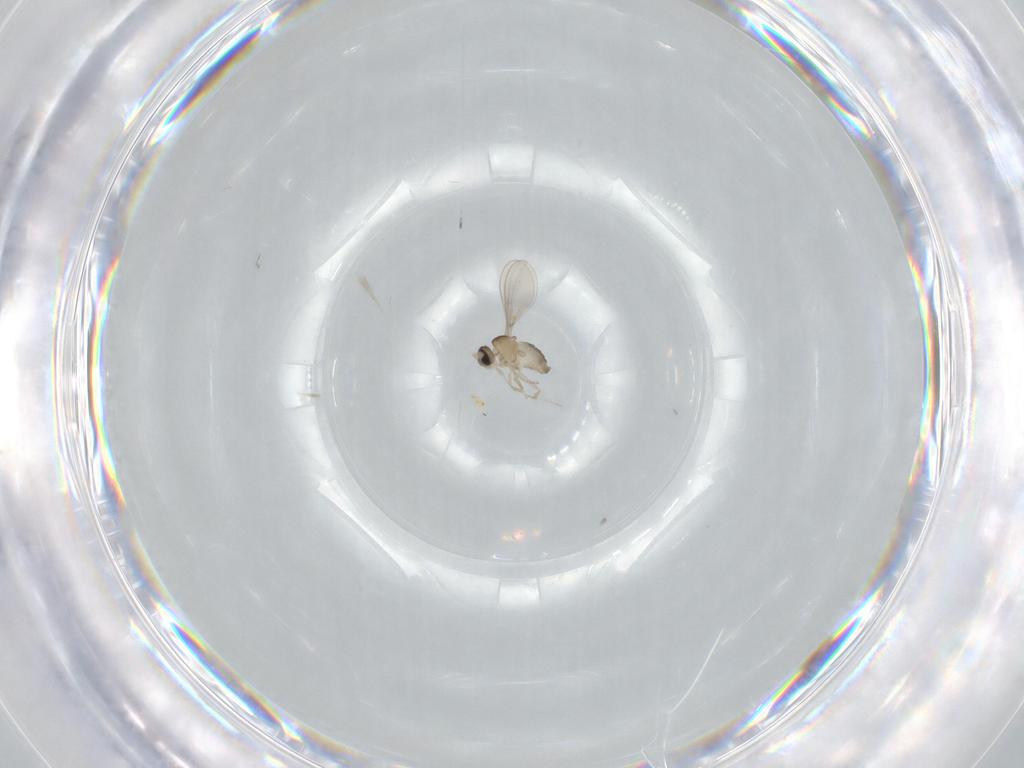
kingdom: Animalia
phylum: Arthropoda
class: Insecta
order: Diptera
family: Cecidomyiidae
